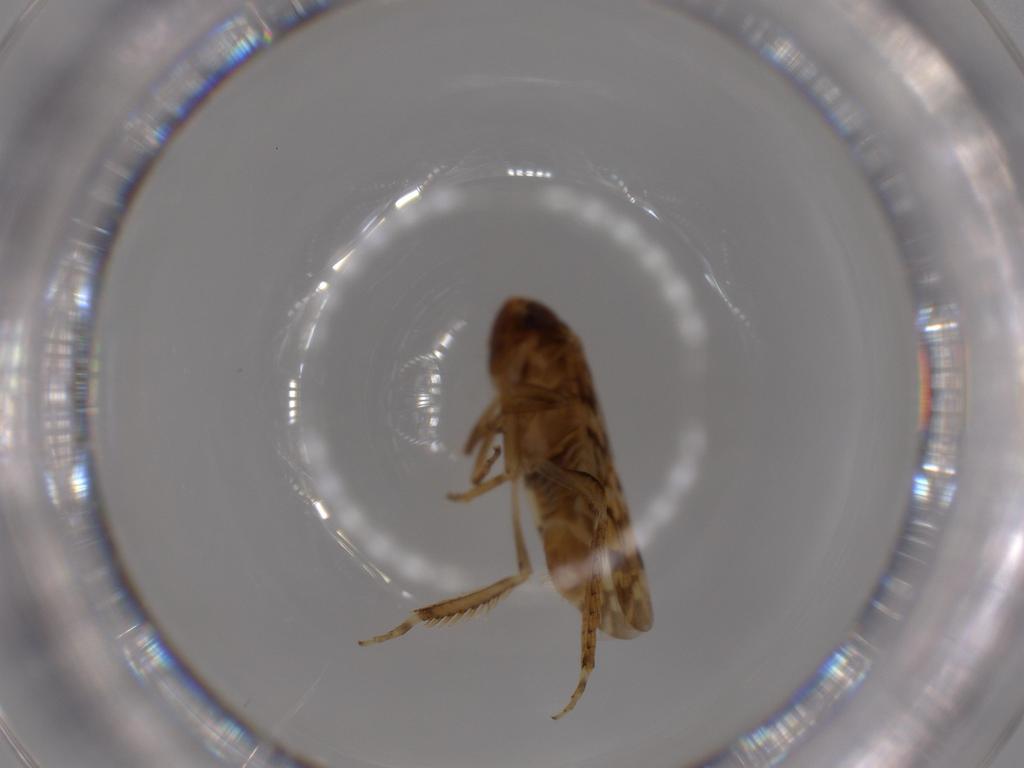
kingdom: Animalia
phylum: Arthropoda
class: Insecta
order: Hemiptera
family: Cicadellidae
